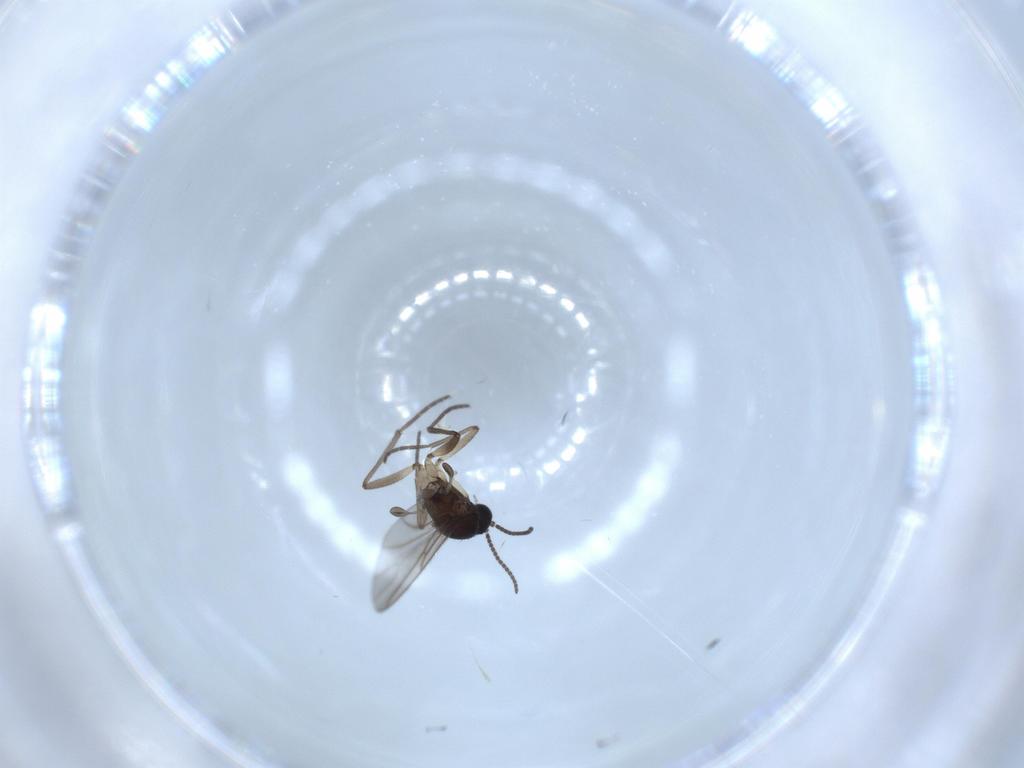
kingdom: Animalia
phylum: Arthropoda
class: Insecta
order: Diptera
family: Sciaridae
